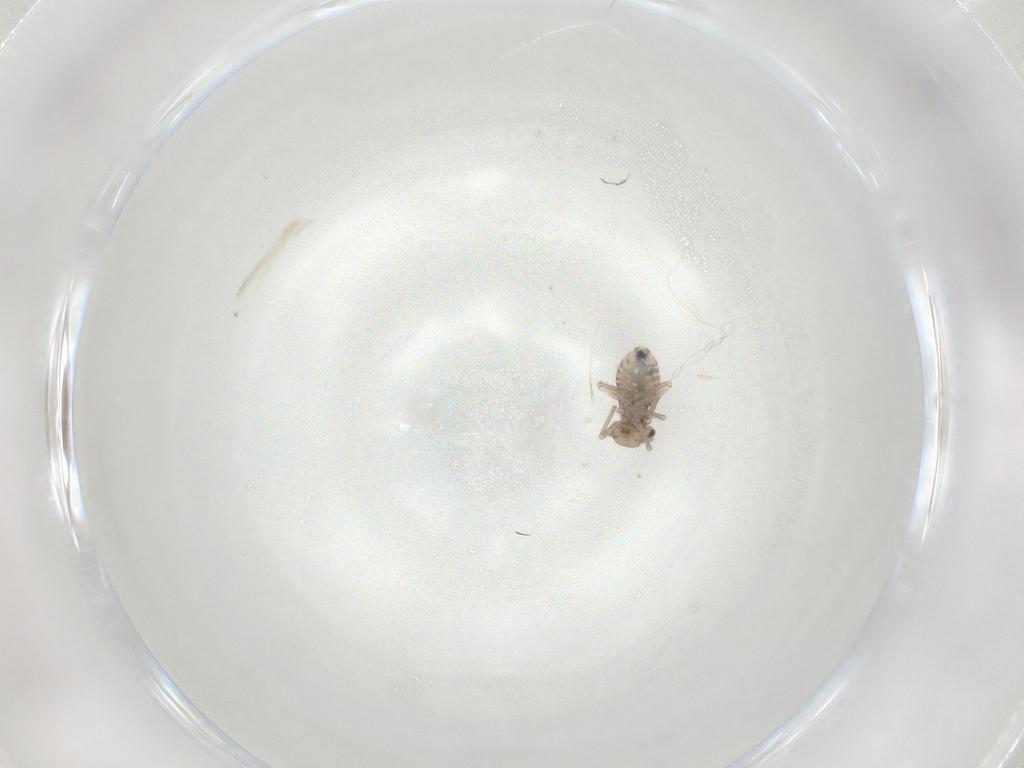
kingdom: Animalia
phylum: Arthropoda
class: Insecta
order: Psocodea
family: Lachesillidae
